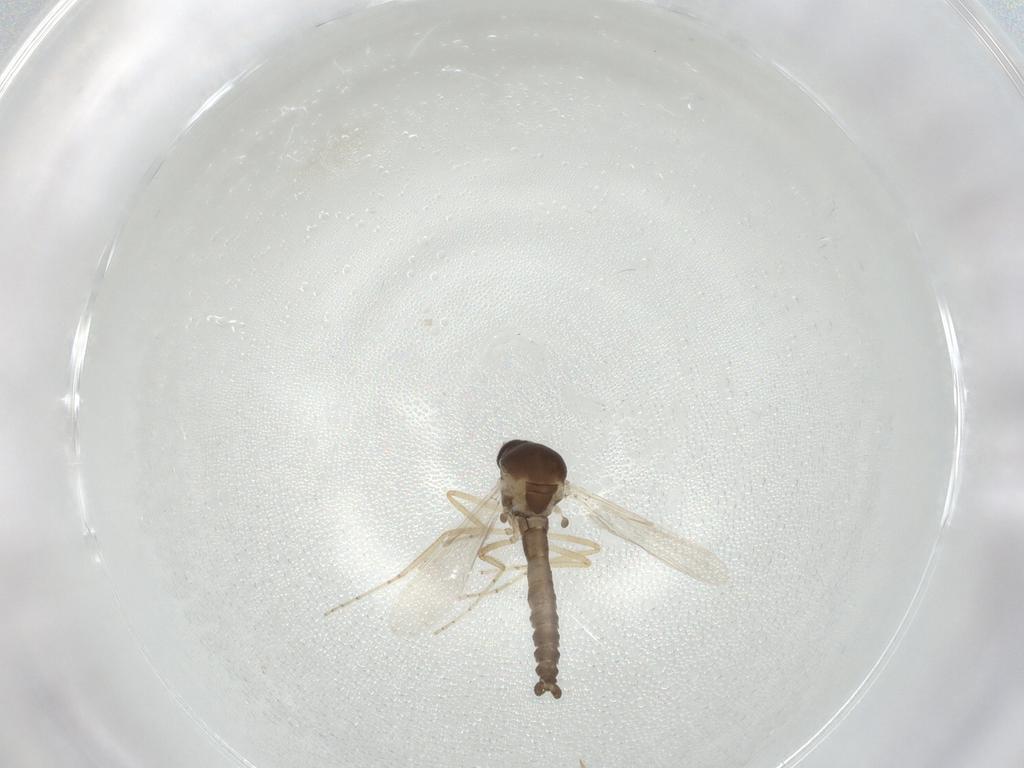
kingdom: Animalia
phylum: Arthropoda
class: Insecta
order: Diptera
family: Ceratopogonidae
